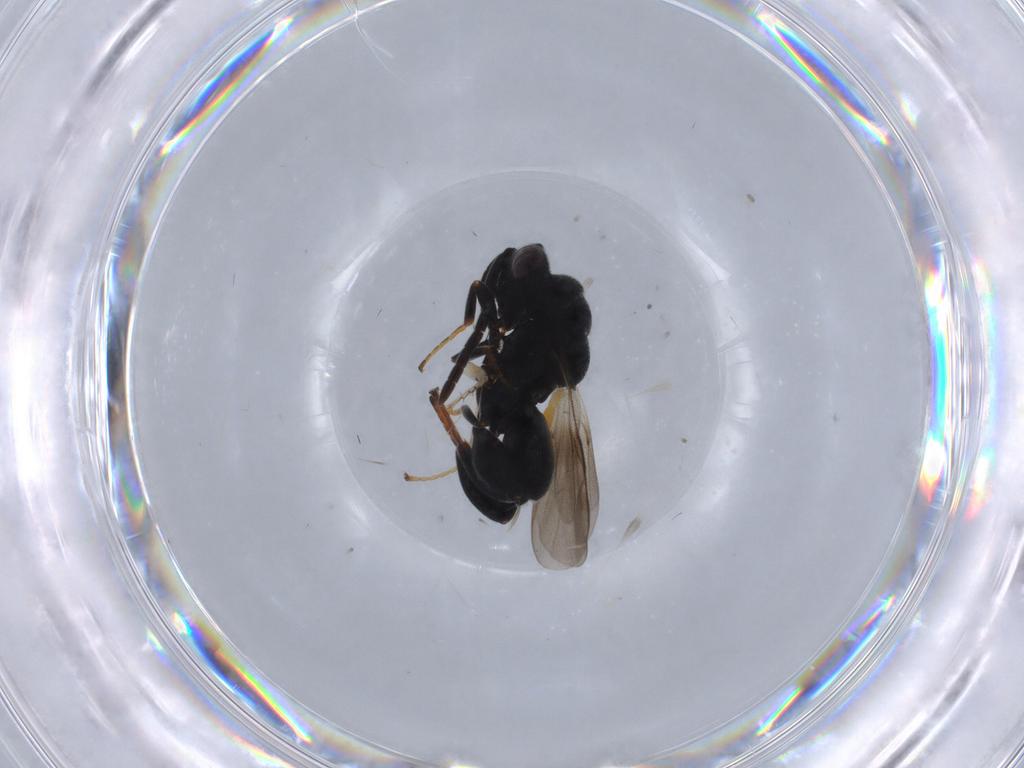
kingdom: Animalia
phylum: Arthropoda
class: Insecta
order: Hymenoptera
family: Braconidae
